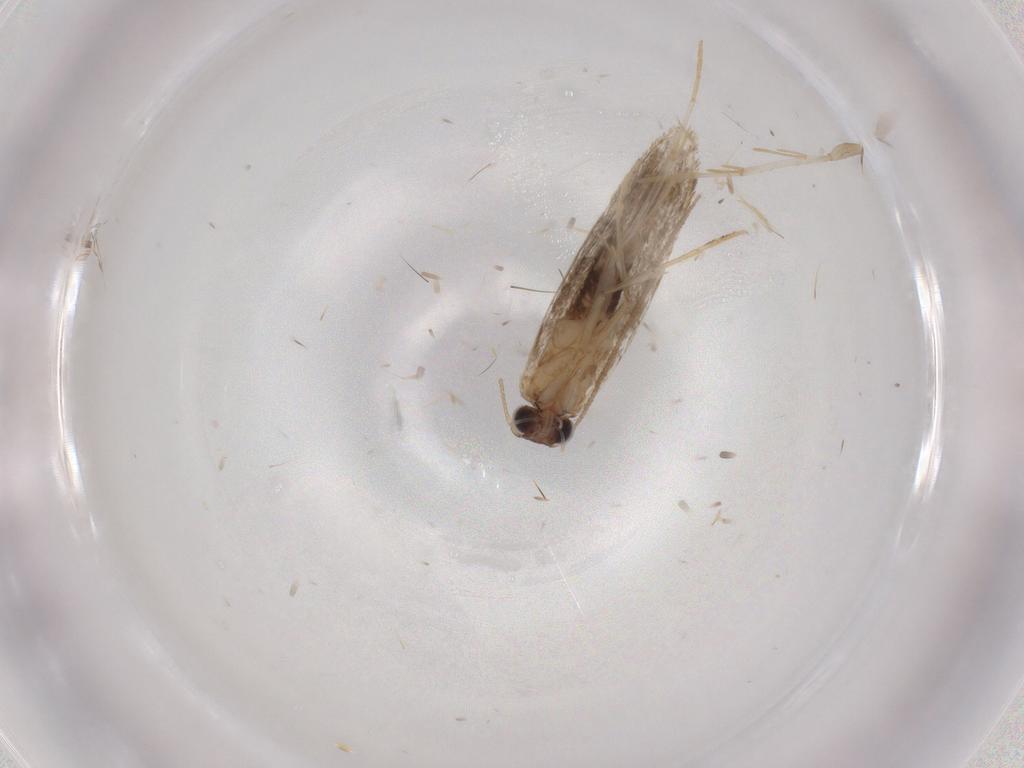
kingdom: Animalia
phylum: Arthropoda
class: Insecta
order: Lepidoptera
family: Tineidae
